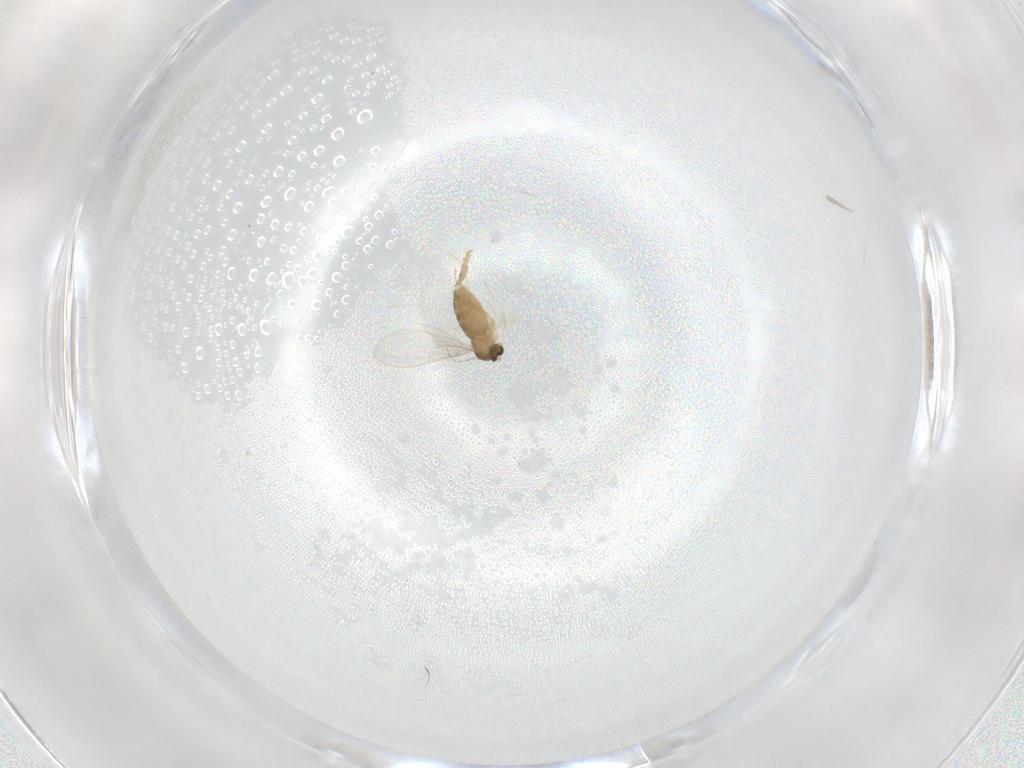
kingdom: Animalia
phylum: Arthropoda
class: Insecta
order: Diptera
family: Cecidomyiidae
